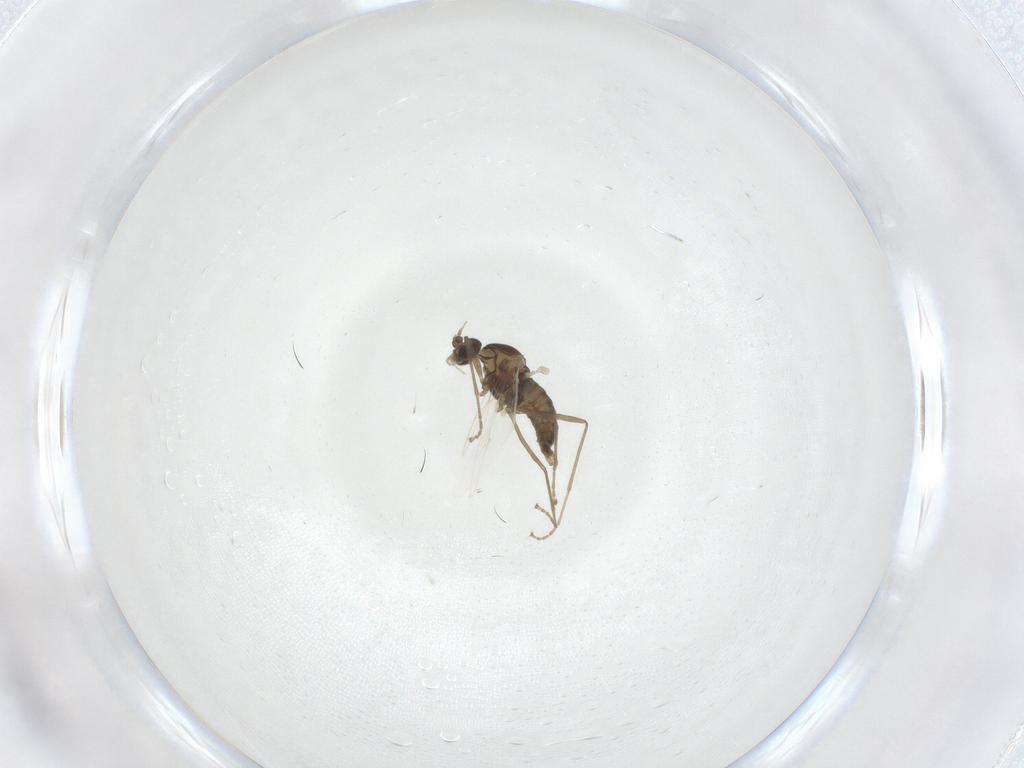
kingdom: Animalia
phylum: Arthropoda
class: Insecta
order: Diptera
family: Cecidomyiidae
